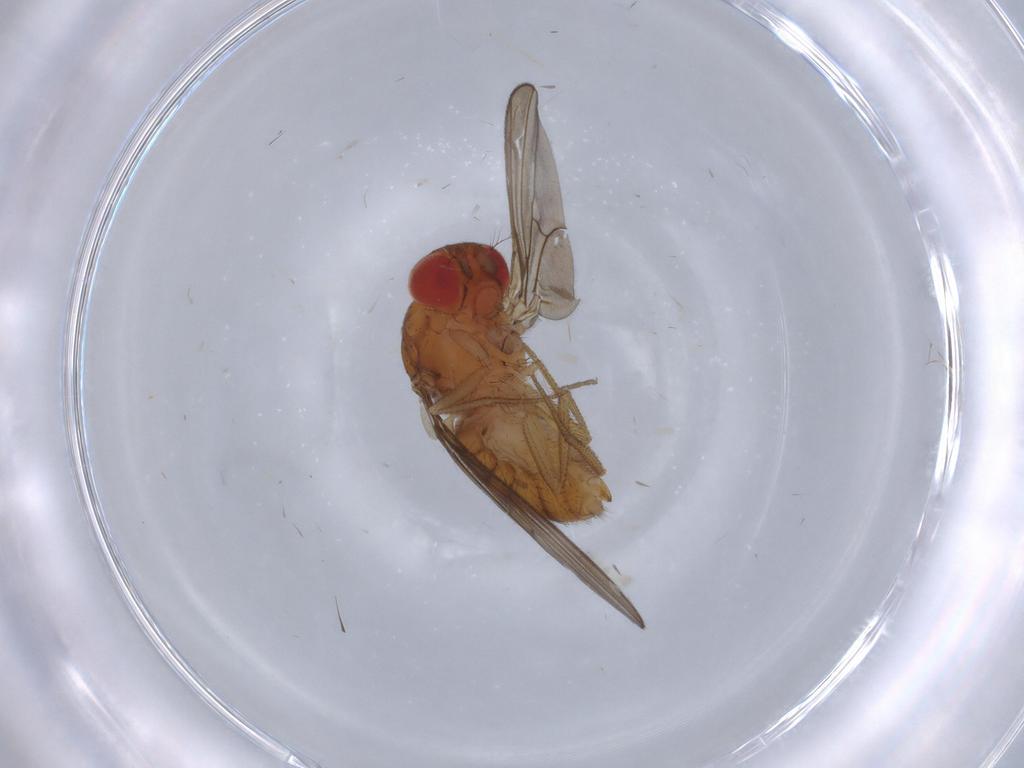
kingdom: Animalia
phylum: Arthropoda
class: Insecta
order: Diptera
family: Drosophilidae
